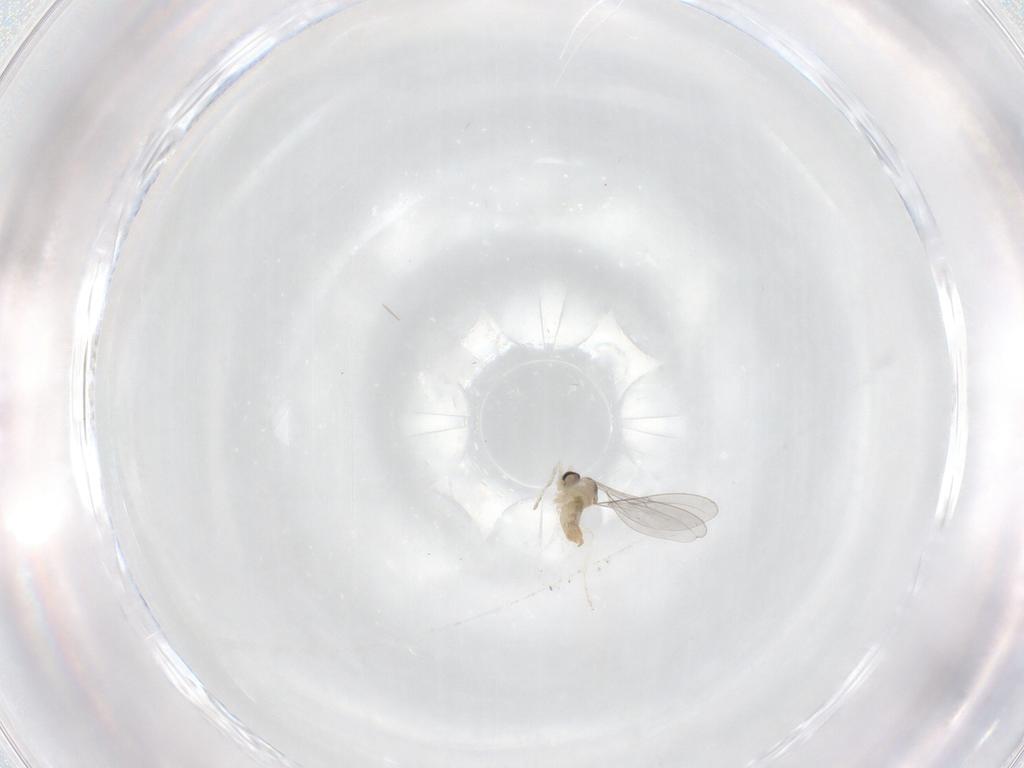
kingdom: Animalia
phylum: Arthropoda
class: Insecta
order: Diptera
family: Cecidomyiidae
